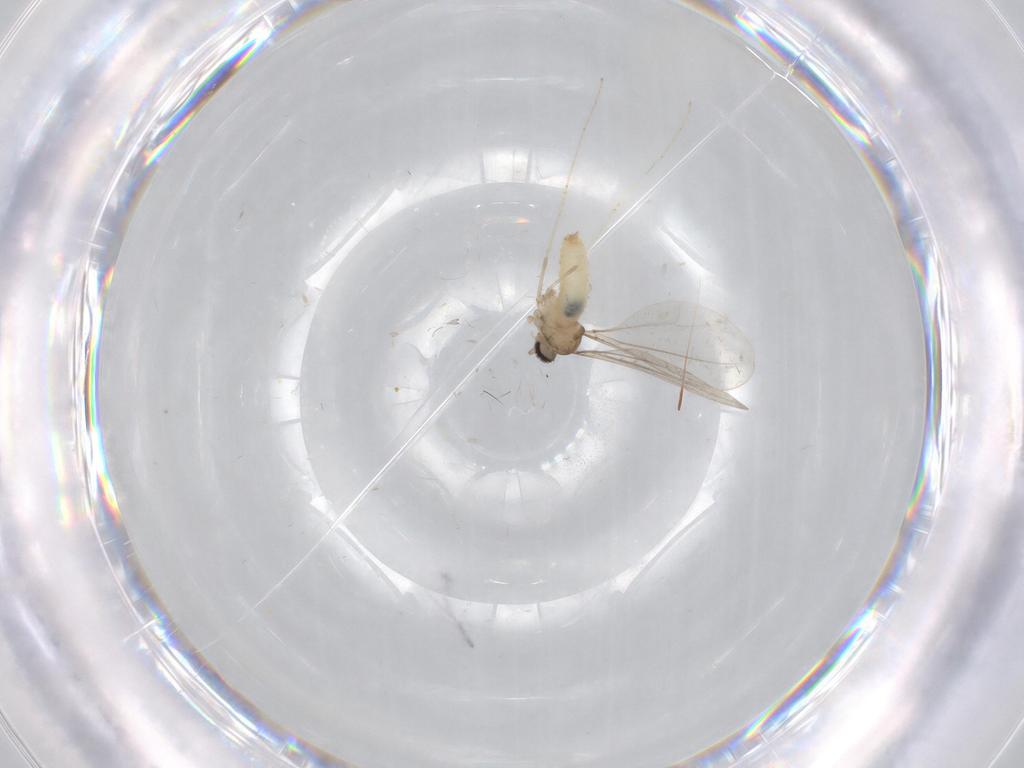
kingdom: Animalia
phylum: Arthropoda
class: Insecta
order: Diptera
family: Cecidomyiidae
